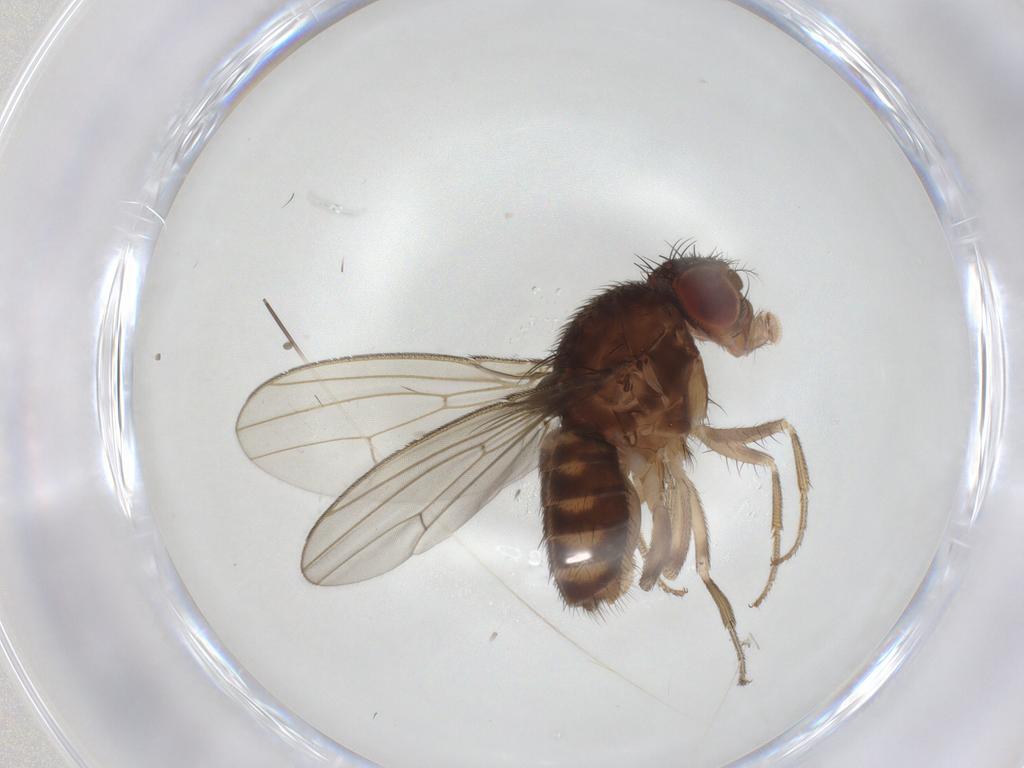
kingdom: Animalia
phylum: Arthropoda
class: Insecta
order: Diptera
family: Drosophilidae
